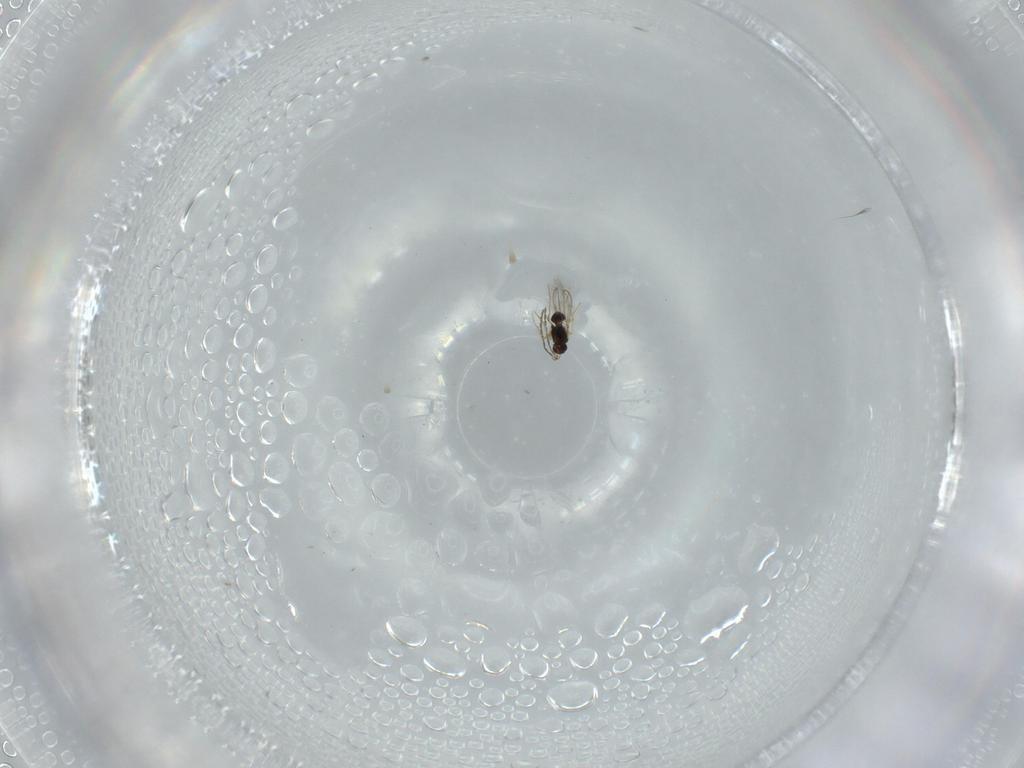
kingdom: Animalia
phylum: Arthropoda
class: Insecta
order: Hymenoptera
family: Mymaridae
